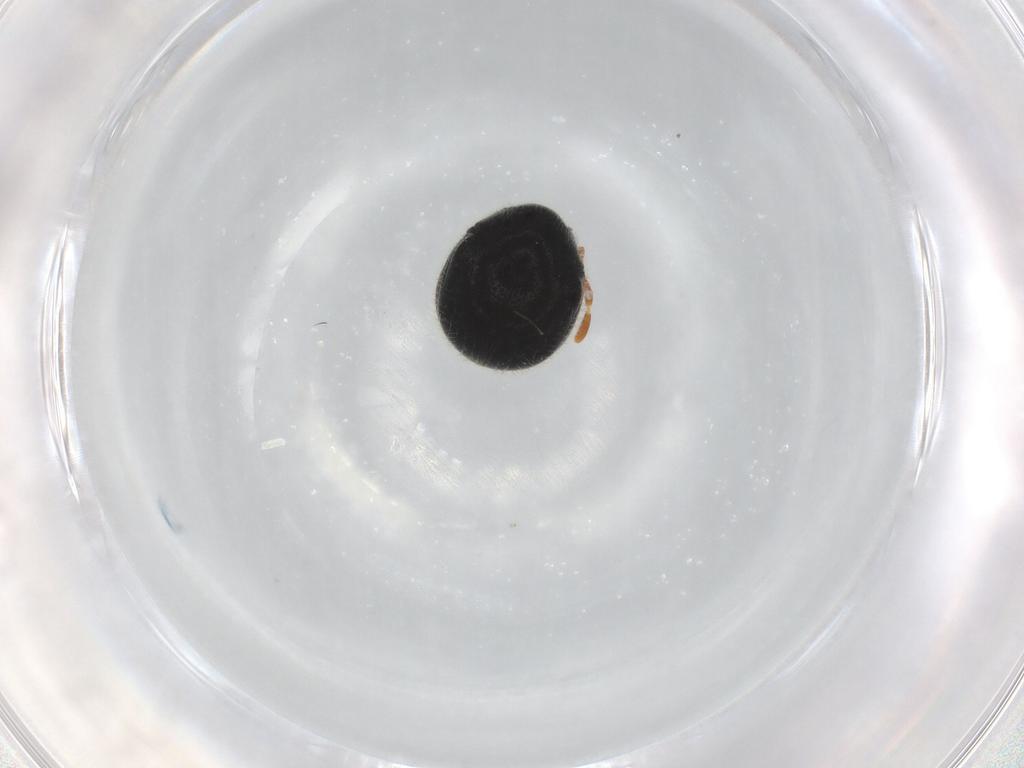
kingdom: Animalia
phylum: Arthropoda
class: Insecta
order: Coleoptera
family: Ptinidae
